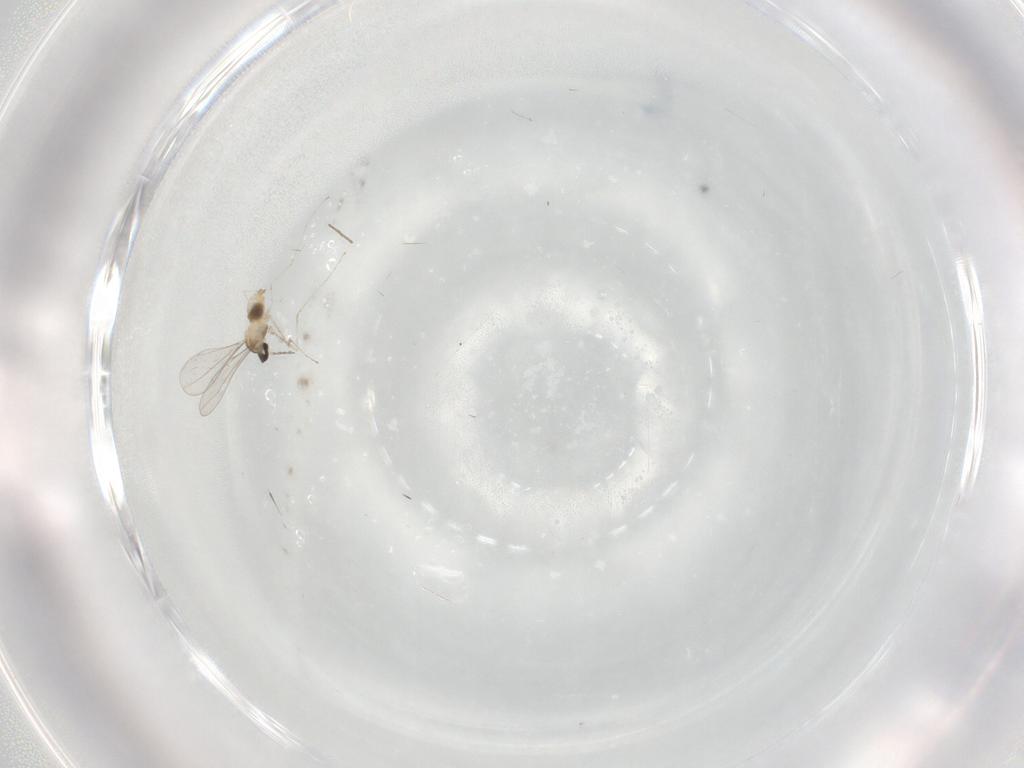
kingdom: Animalia
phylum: Arthropoda
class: Insecta
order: Diptera
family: Cecidomyiidae
